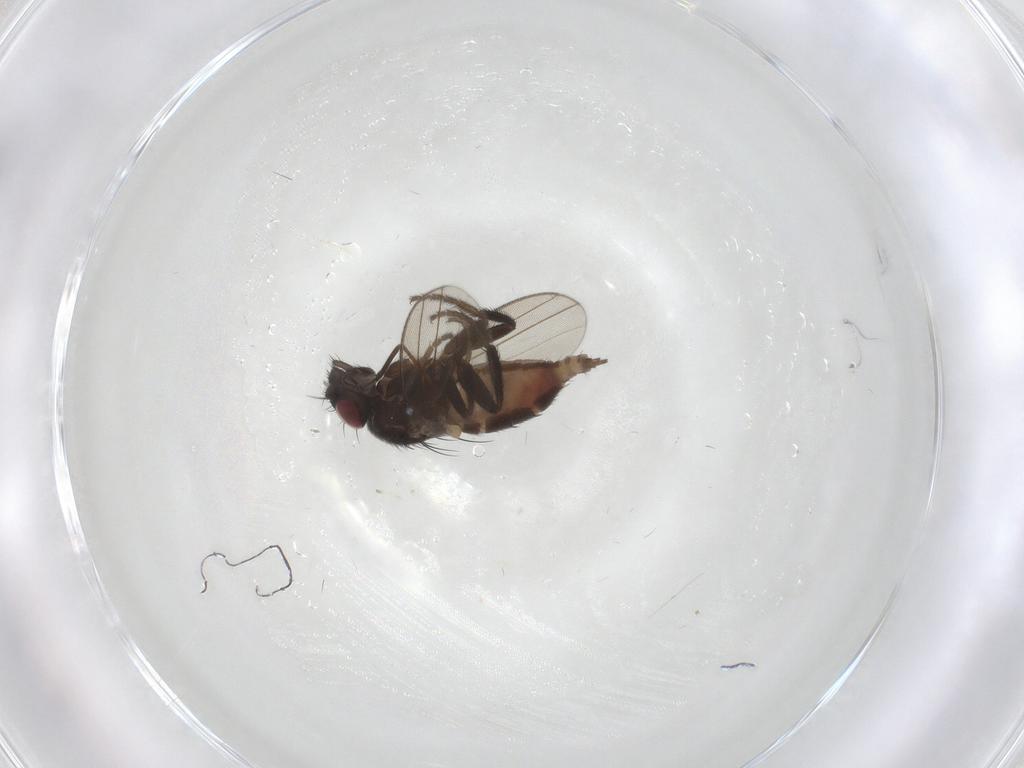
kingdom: Animalia
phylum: Arthropoda
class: Insecta
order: Diptera
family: Milichiidae
